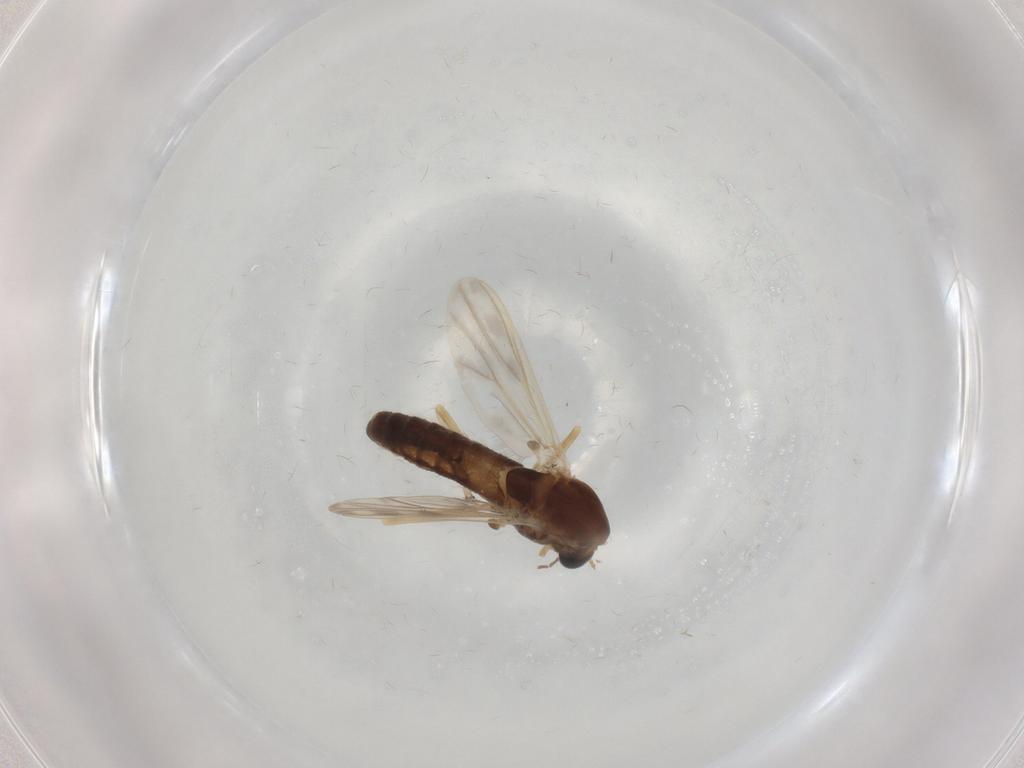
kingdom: Animalia
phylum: Arthropoda
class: Insecta
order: Diptera
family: Chironomidae
